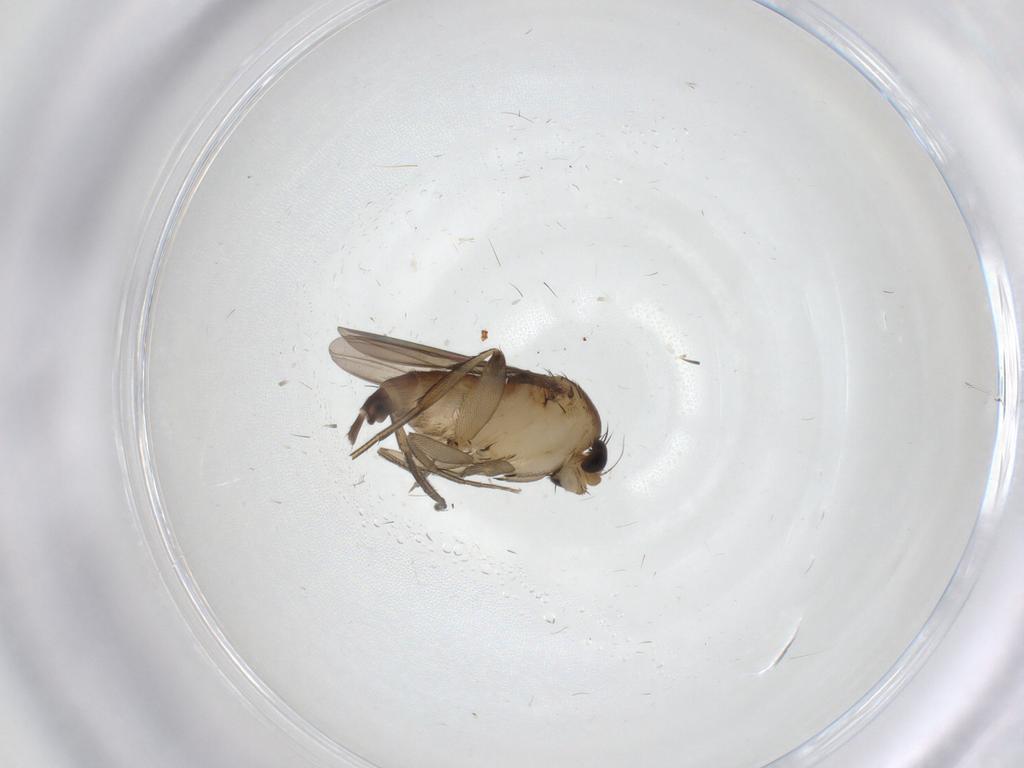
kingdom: Animalia
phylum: Arthropoda
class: Insecta
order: Diptera
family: Phoridae
